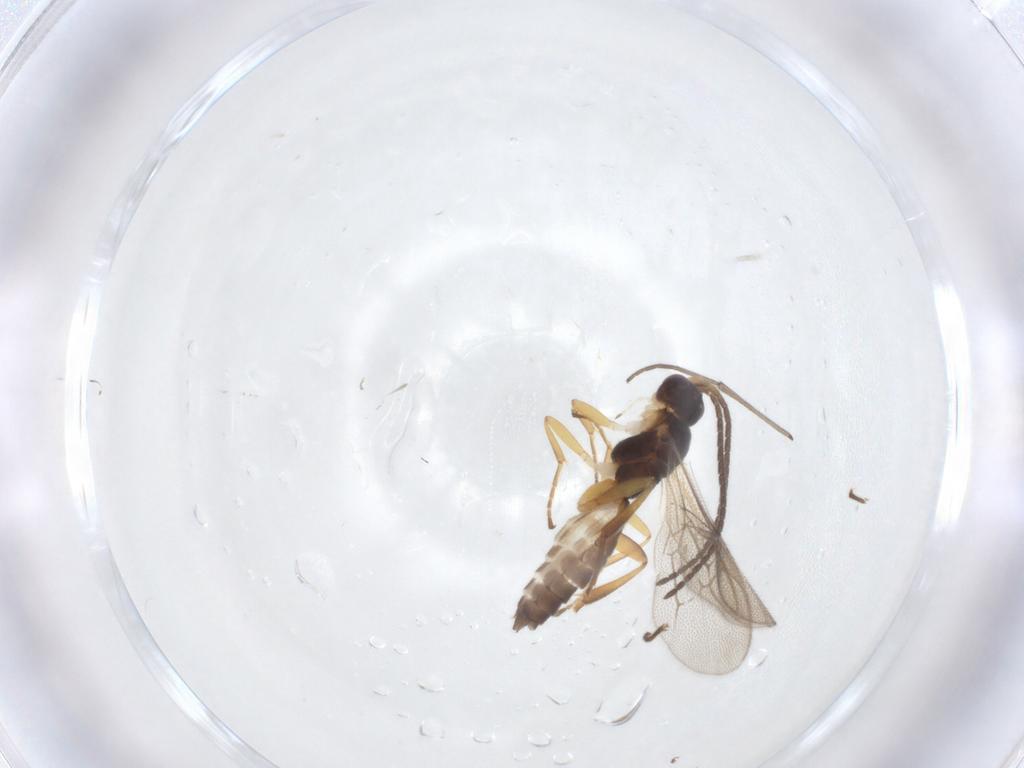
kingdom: Animalia
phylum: Arthropoda
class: Insecta
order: Hymenoptera
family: Ichneumonidae
